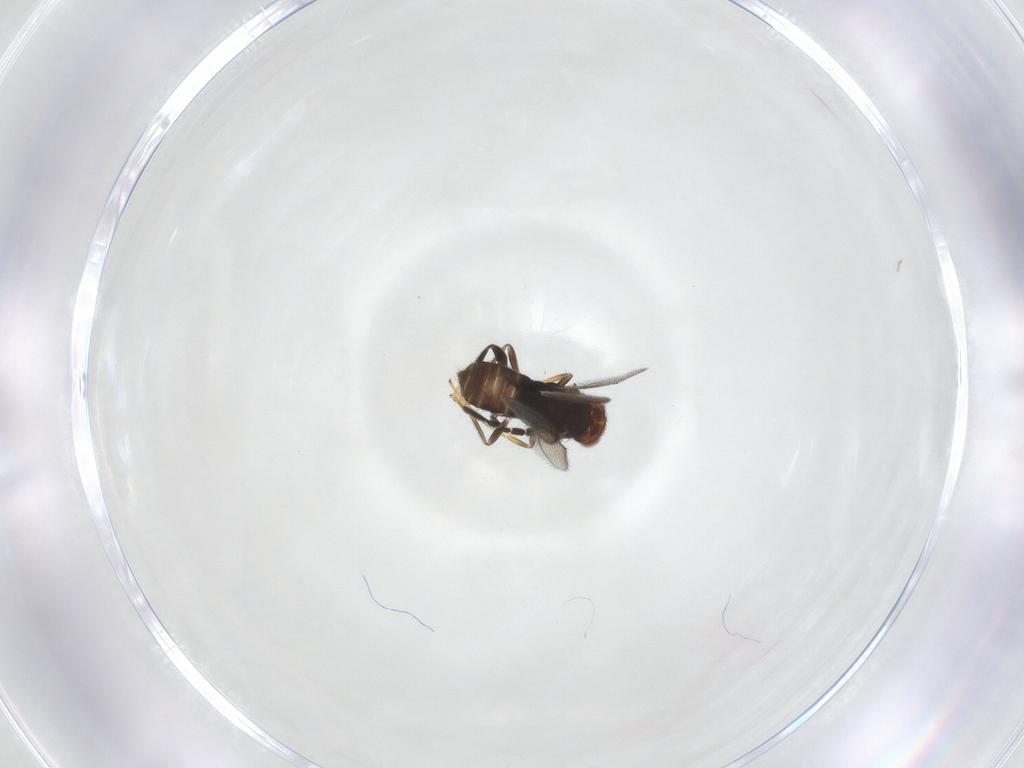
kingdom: Animalia
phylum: Arthropoda
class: Insecta
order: Hymenoptera
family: Aphelinidae
